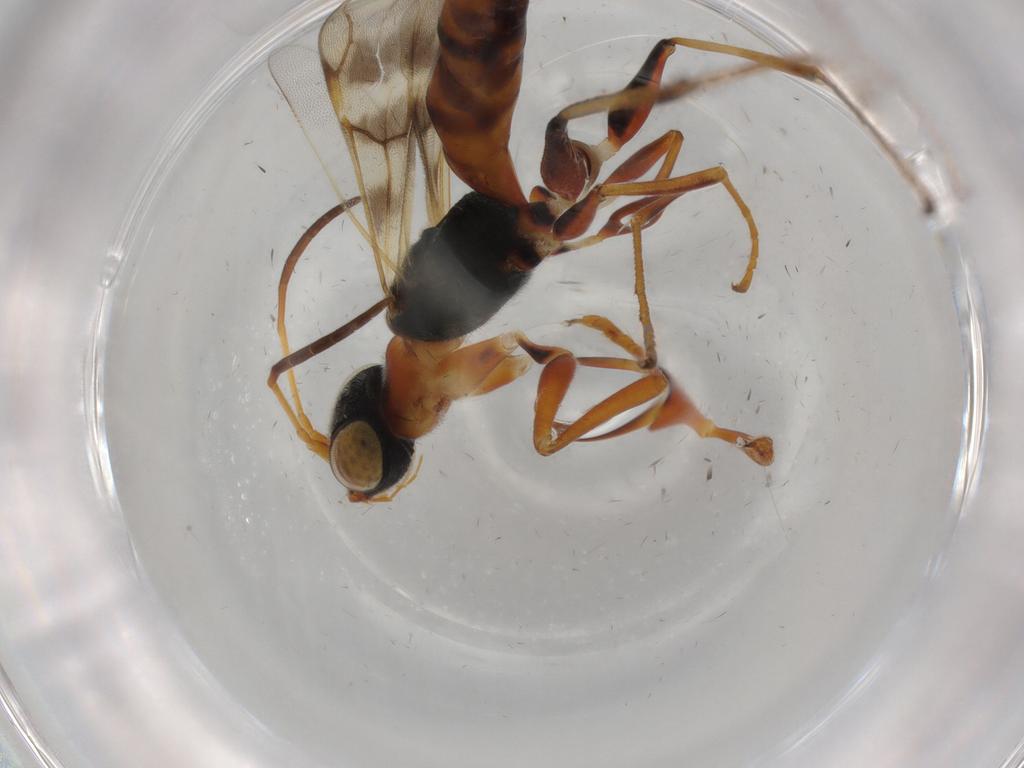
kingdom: Animalia
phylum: Arthropoda
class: Insecta
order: Hymenoptera
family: Dryinidae
